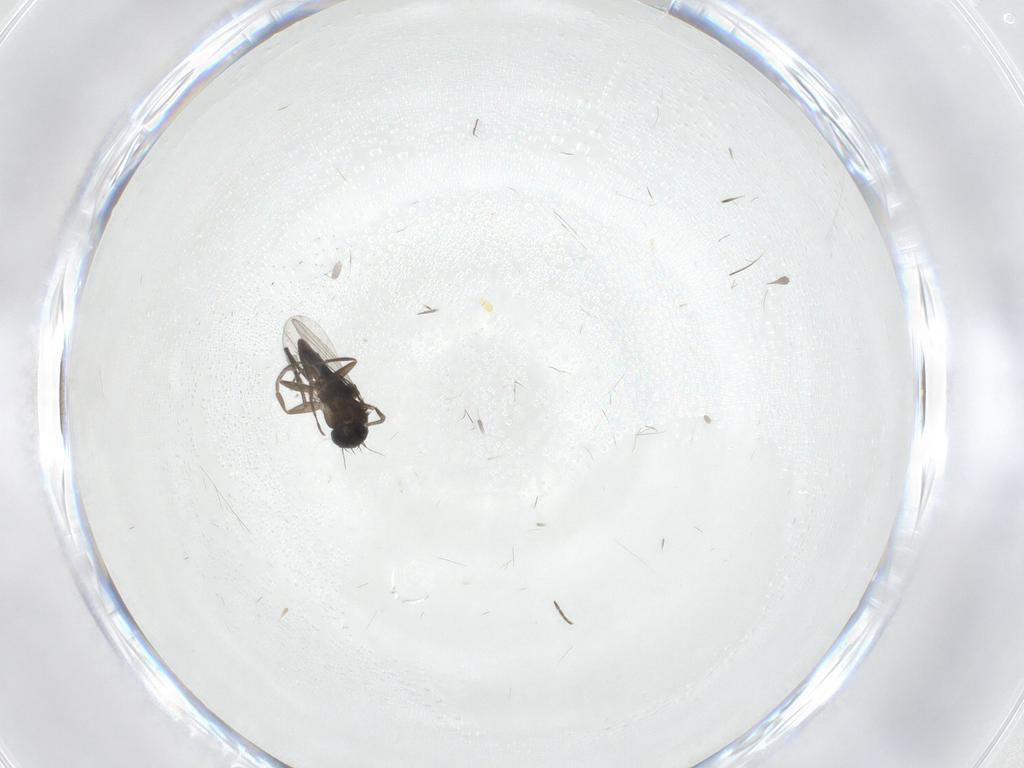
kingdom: Animalia
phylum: Arthropoda
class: Insecta
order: Diptera
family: Phoridae
